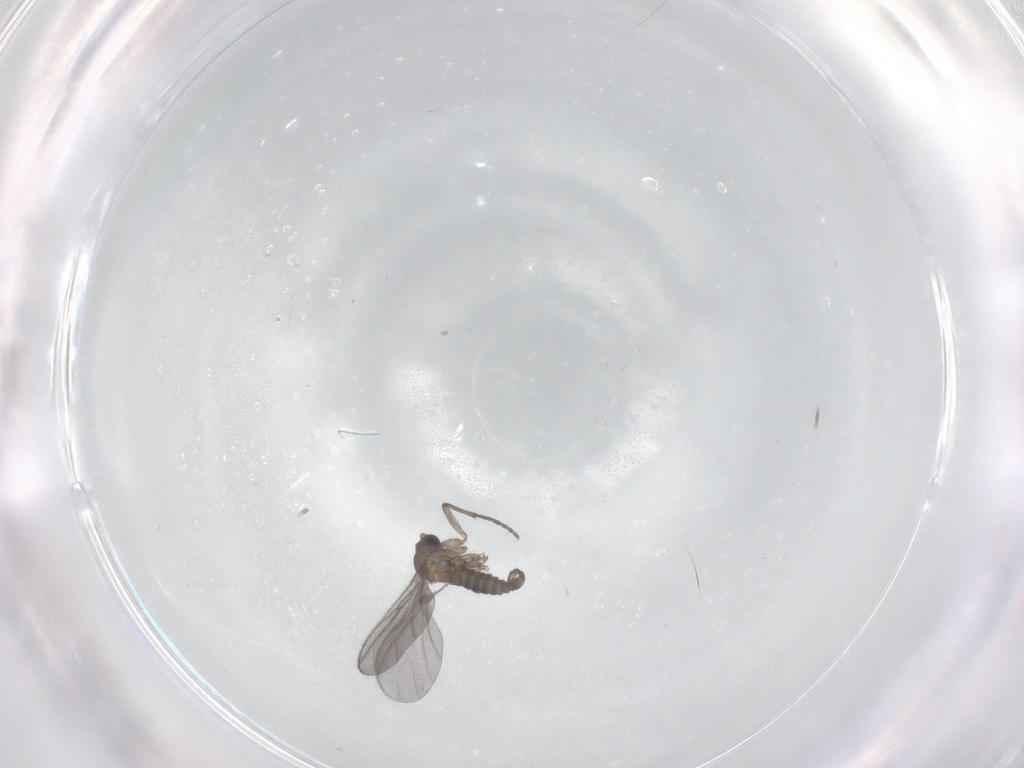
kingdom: Animalia
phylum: Arthropoda
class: Insecta
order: Diptera
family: Sciaridae
